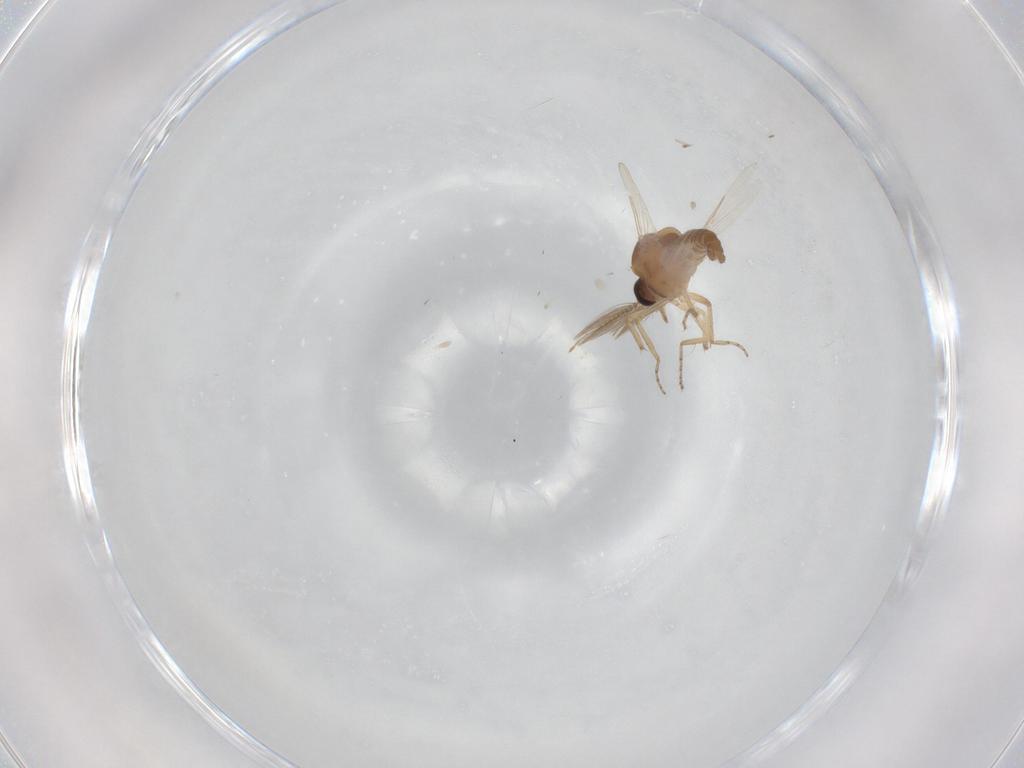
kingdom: Animalia
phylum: Arthropoda
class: Insecta
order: Diptera
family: Ceratopogonidae
